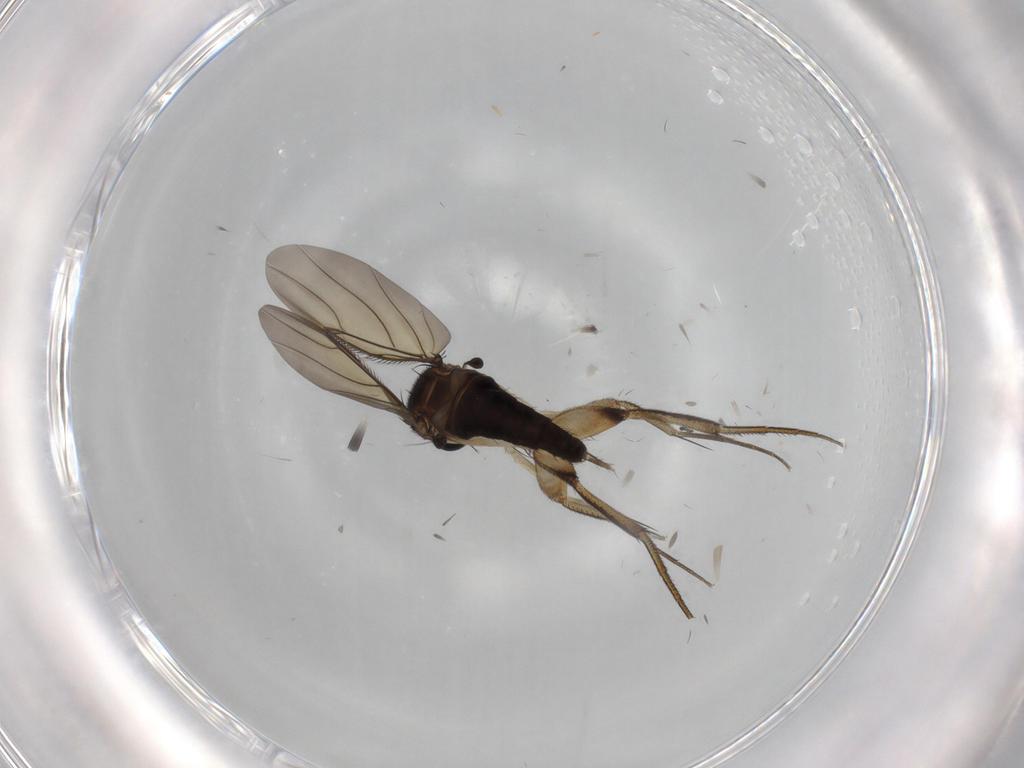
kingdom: Animalia
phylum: Arthropoda
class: Insecta
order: Diptera
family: Phoridae
